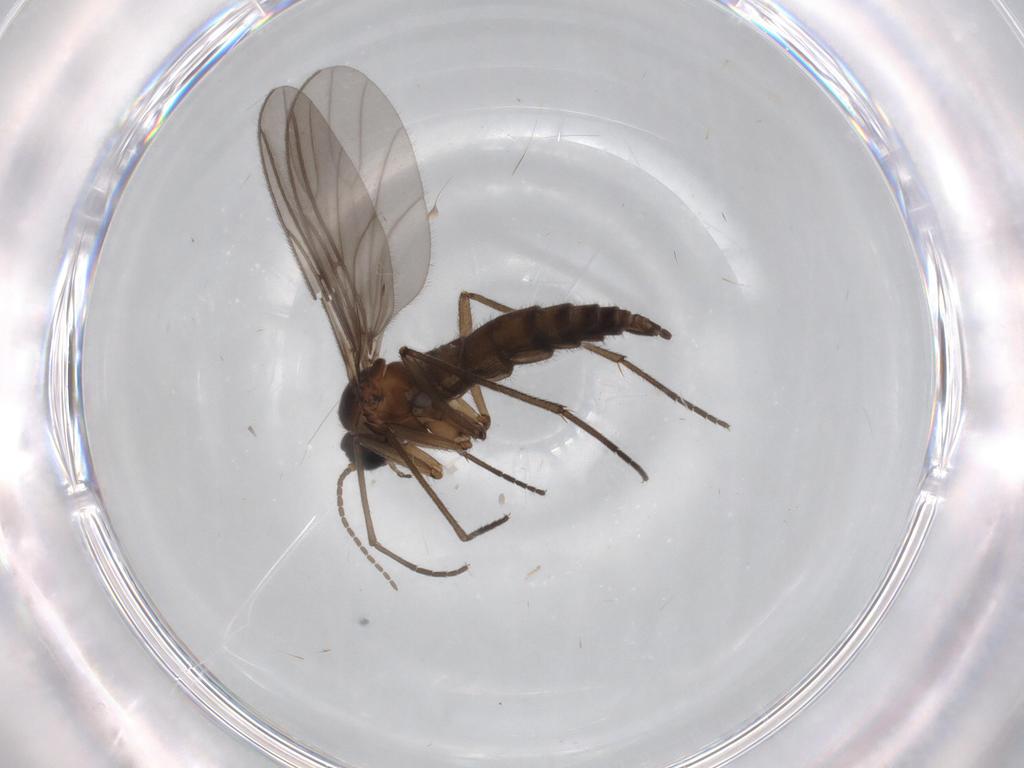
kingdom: Animalia
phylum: Arthropoda
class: Insecta
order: Diptera
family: Sciaridae
